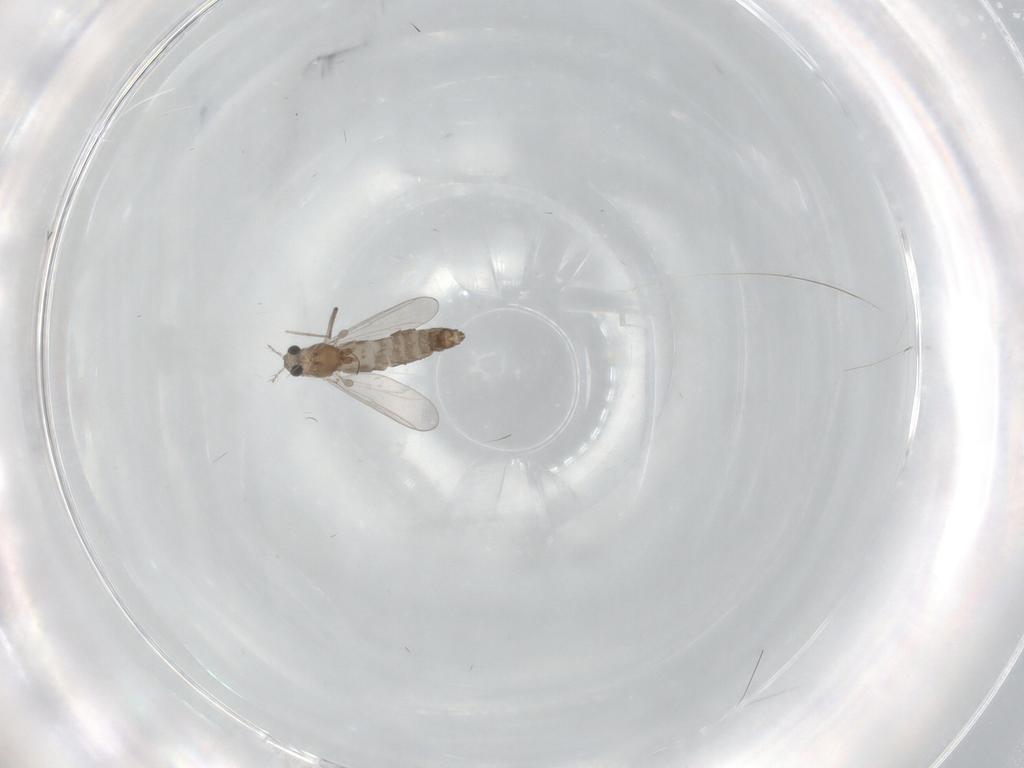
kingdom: Animalia
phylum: Arthropoda
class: Insecta
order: Diptera
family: Chironomidae
